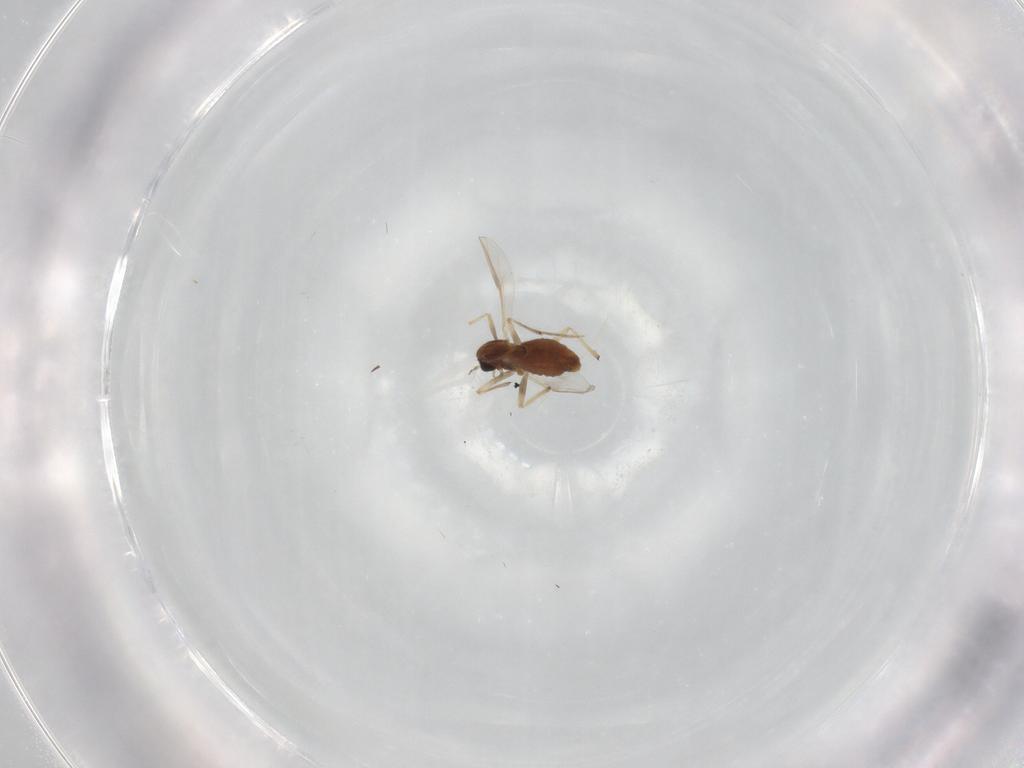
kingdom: Animalia
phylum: Arthropoda
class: Insecta
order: Diptera
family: Chironomidae
